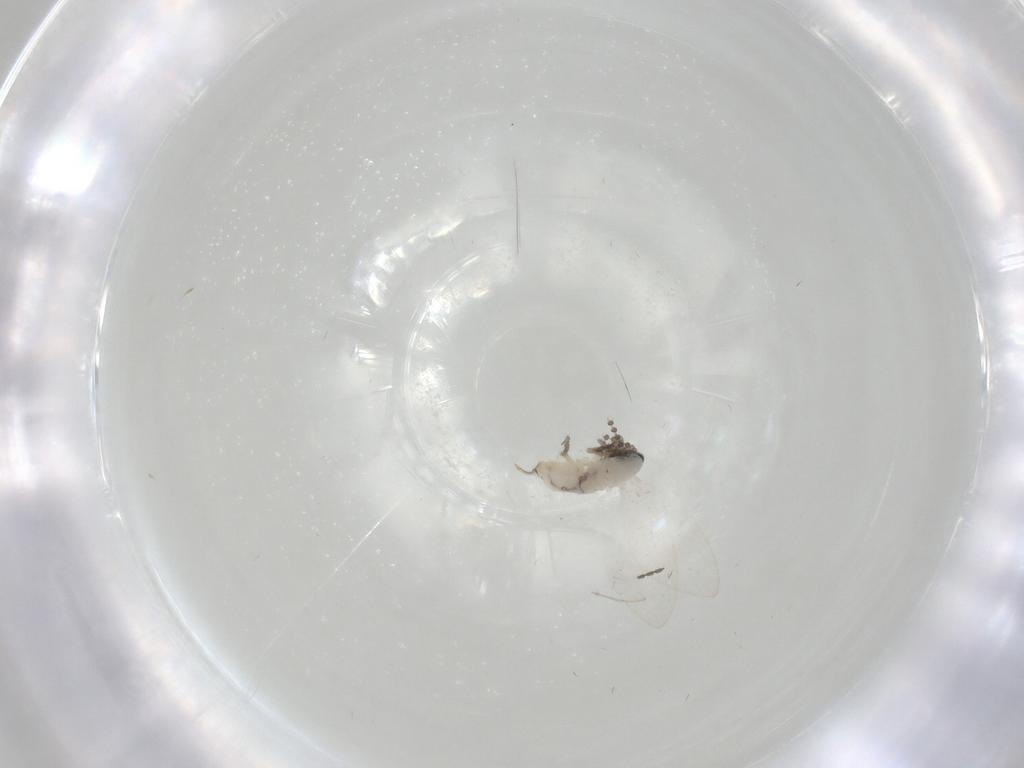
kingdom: Animalia
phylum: Arthropoda
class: Insecta
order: Diptera
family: Psychodidae
